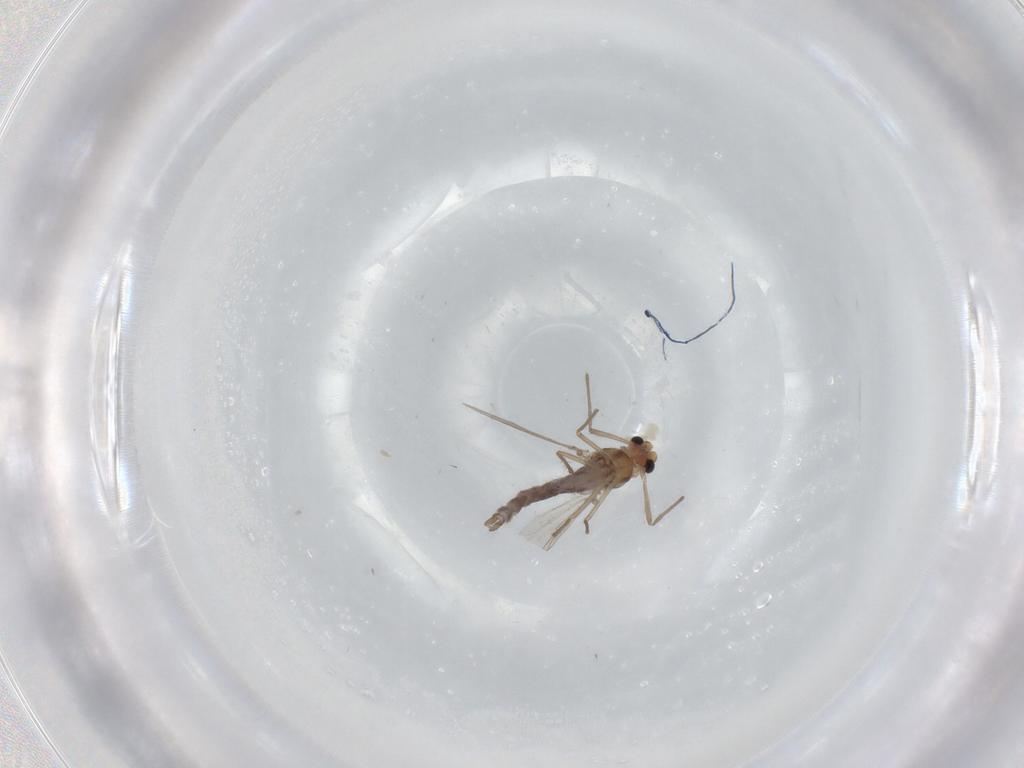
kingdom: Animalia
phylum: Arthropoda
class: Insecta
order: Diptera
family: Chironomidae
